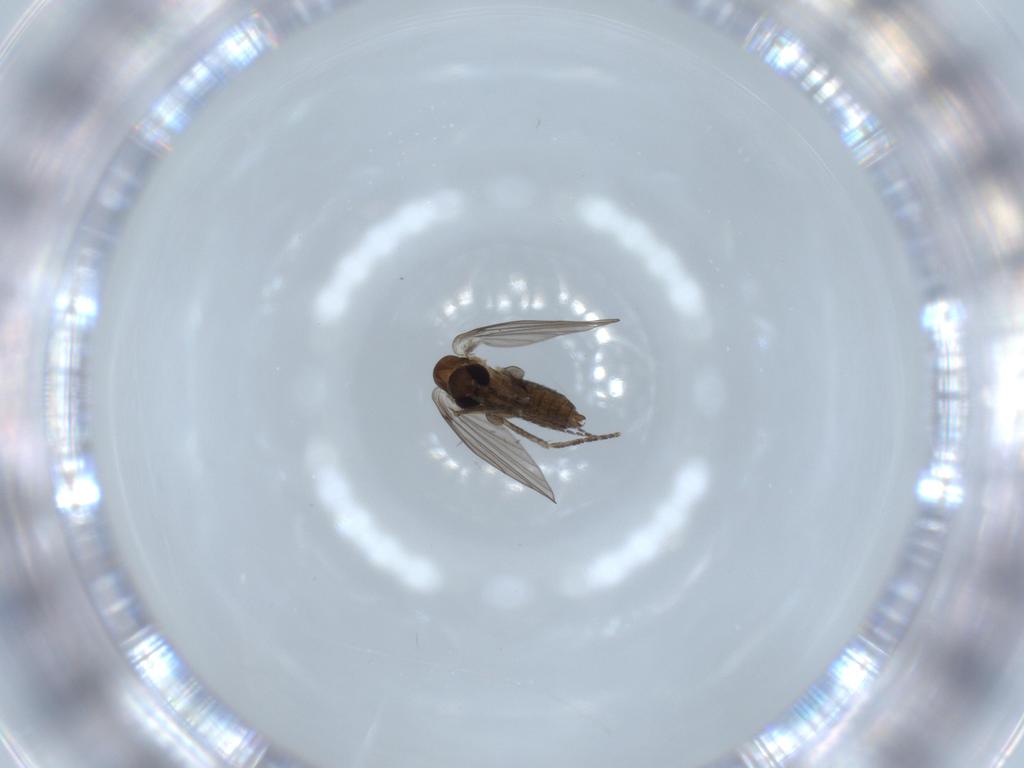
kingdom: Animalia
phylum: Arthropoda
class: Insecta
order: Diptera
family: Psychodidae
